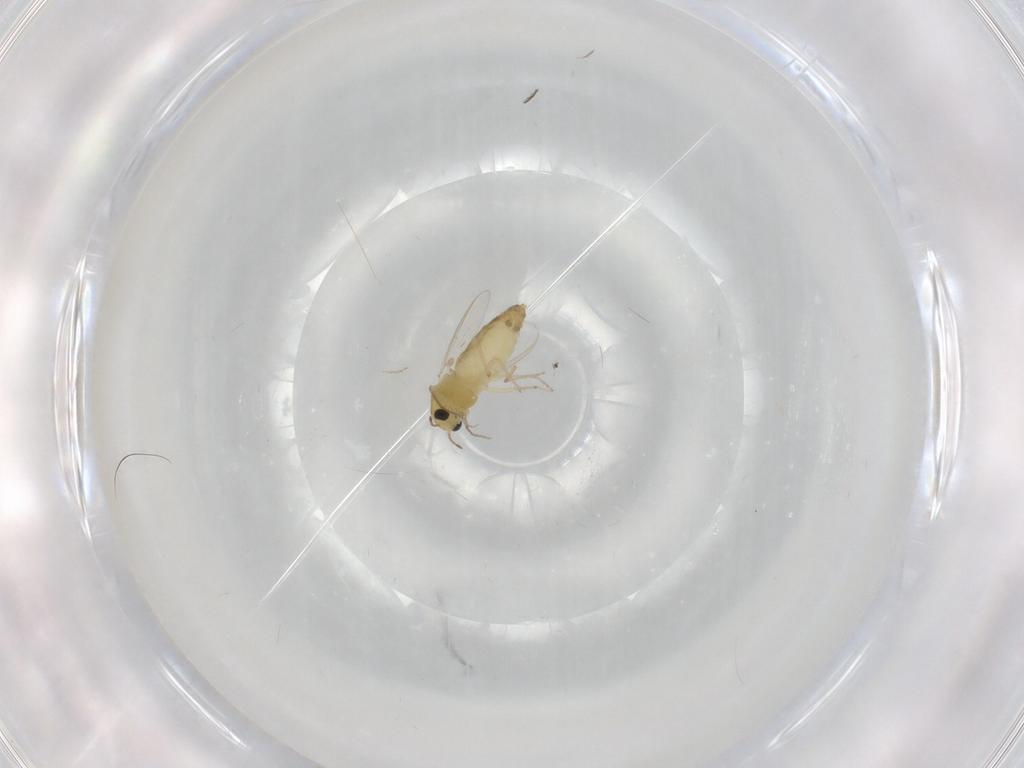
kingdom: Animalia
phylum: Arthropoda
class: Insecta
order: Diptera
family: Chironomidae
